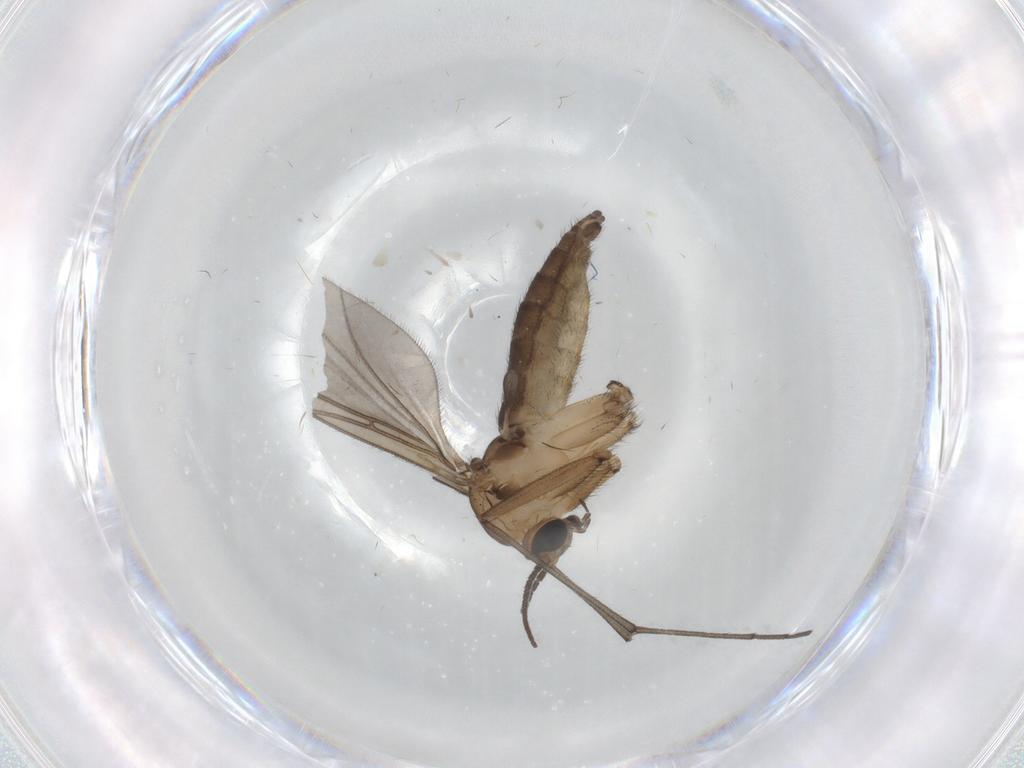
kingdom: Animalia
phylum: Arthropoda
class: Insecta
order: Diptera
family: Sciaridae
